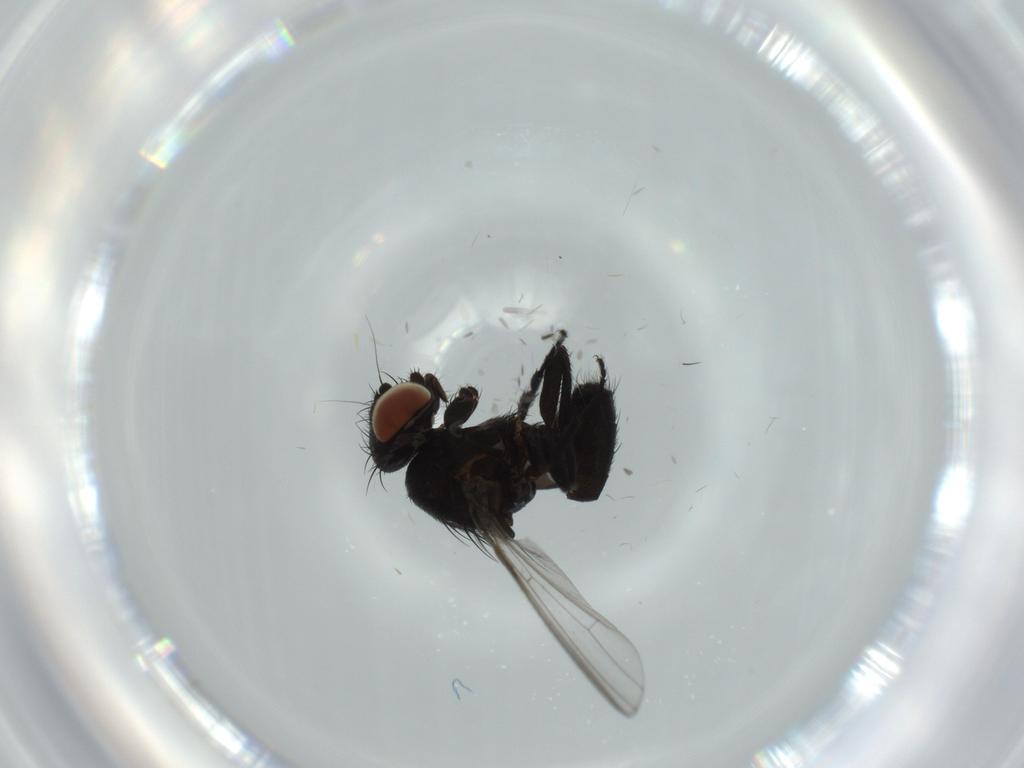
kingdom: Animalia
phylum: Arthropoda
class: Insecta
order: Diptera
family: Milichiidae
